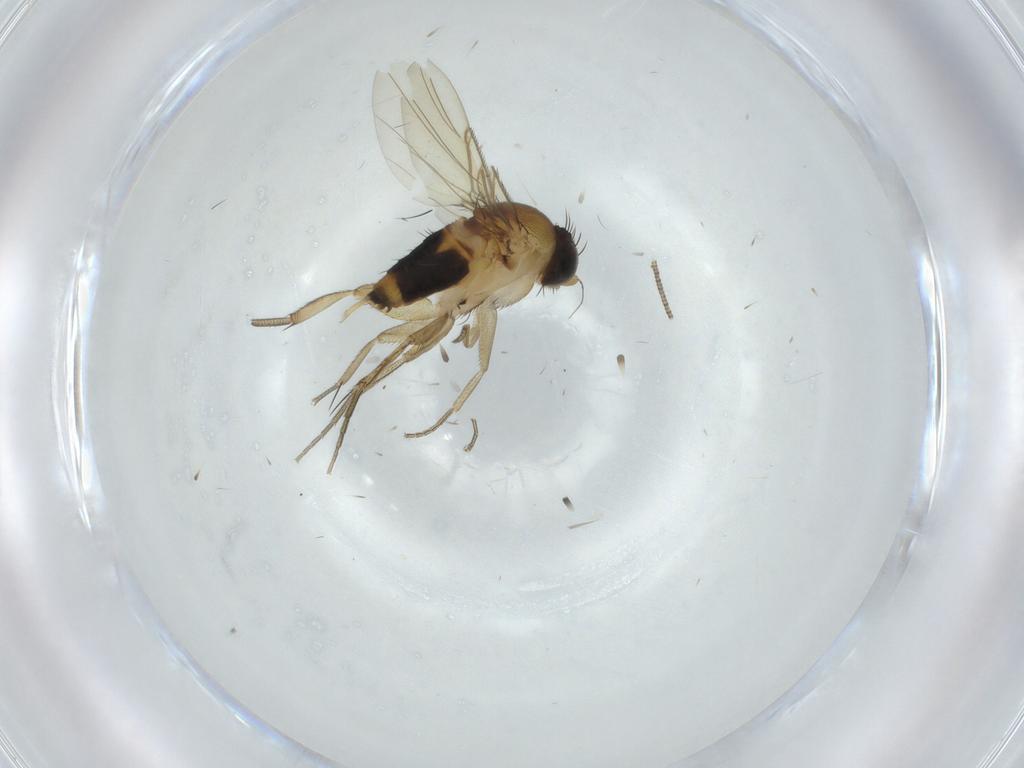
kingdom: Animalia
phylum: Arthropoda
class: Insecta
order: Diptera
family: Phoridae
